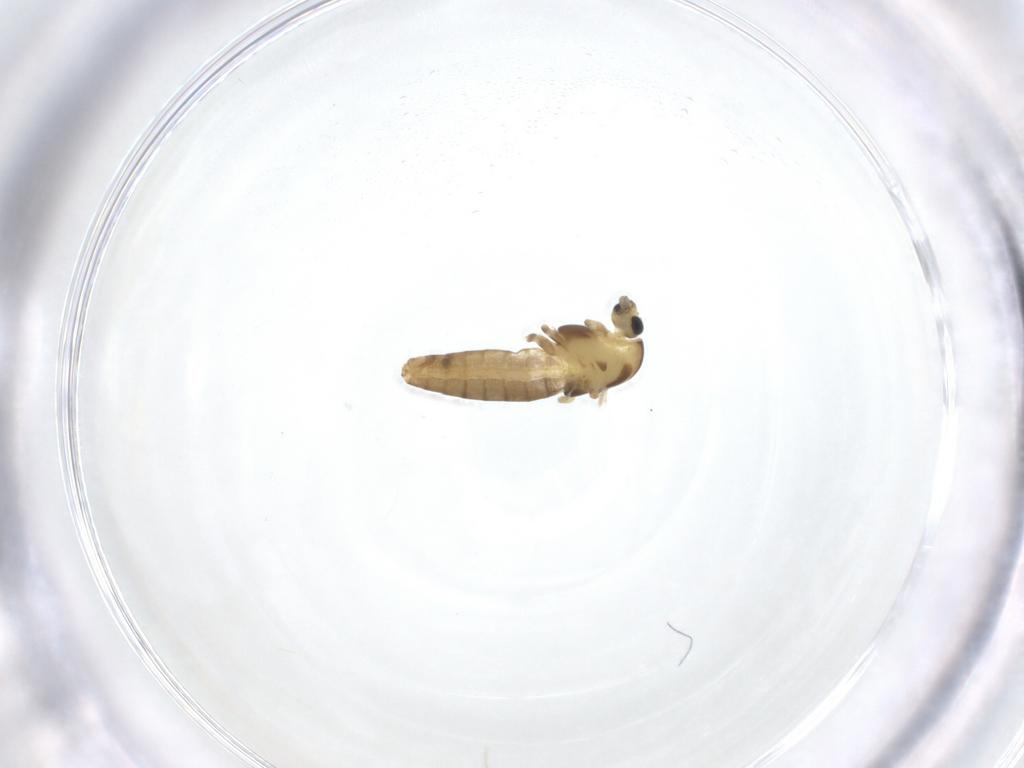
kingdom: Animalia
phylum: Arthropoda
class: Insecta
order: Diptera
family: Chironomidae
